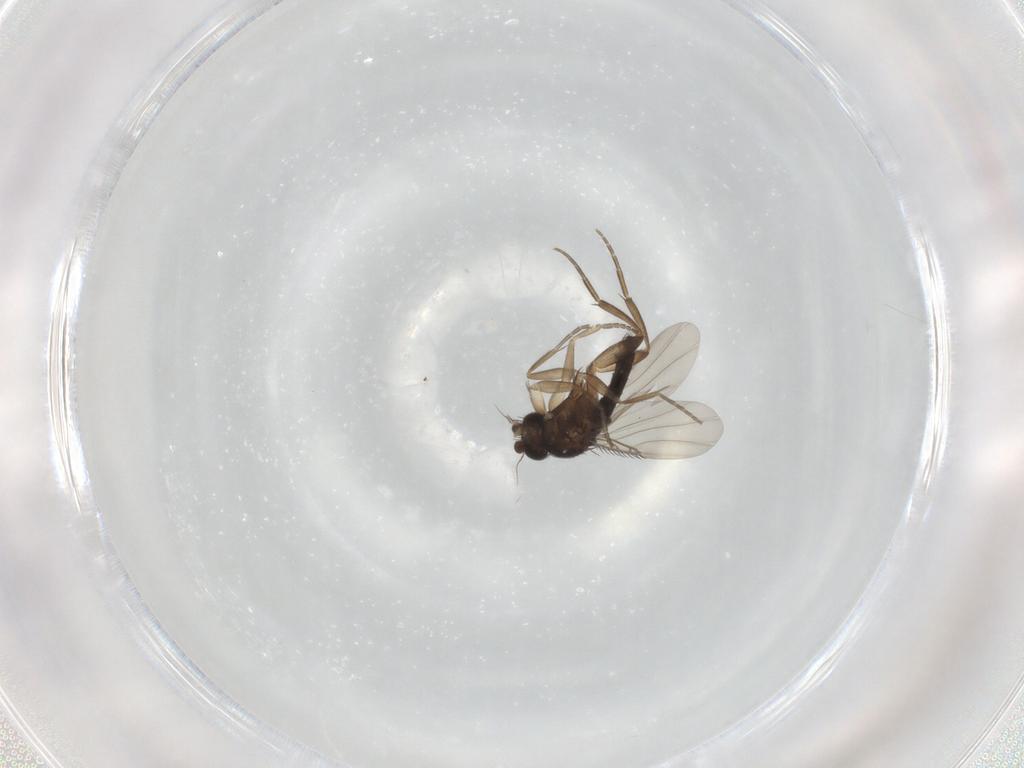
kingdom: Animalia
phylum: Arthropoda
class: Insecta
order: Diptera
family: Phoridae
